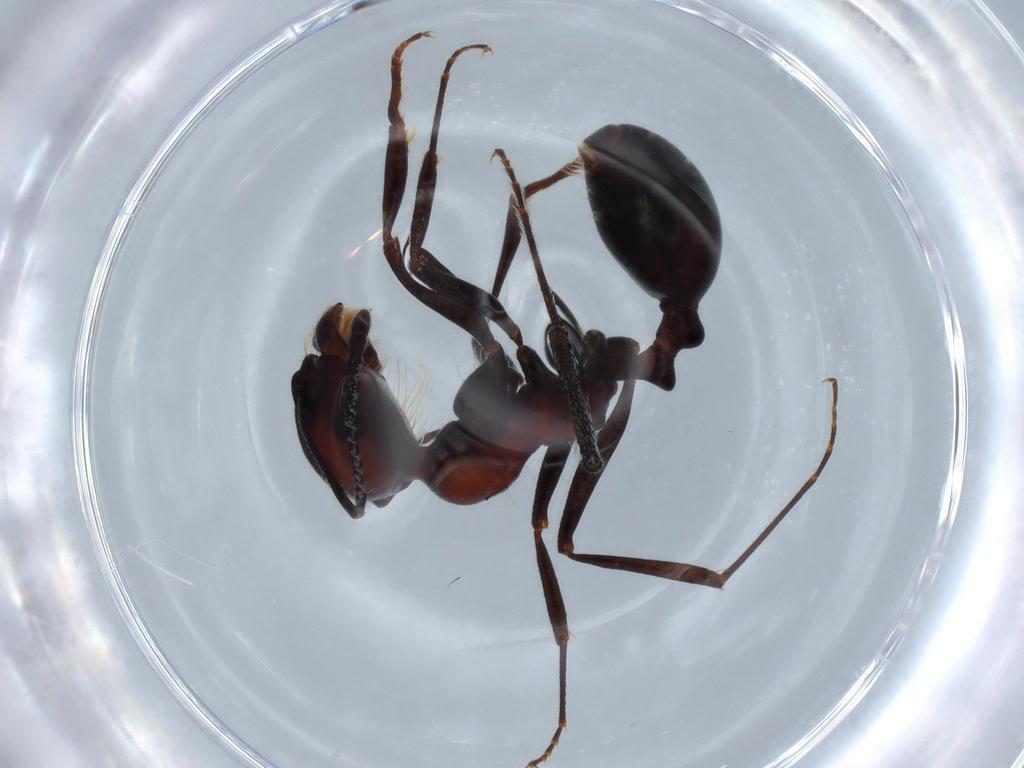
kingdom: Animalia
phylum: Arthropoda
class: Insecta
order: Hymenoptera
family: Formicidae
